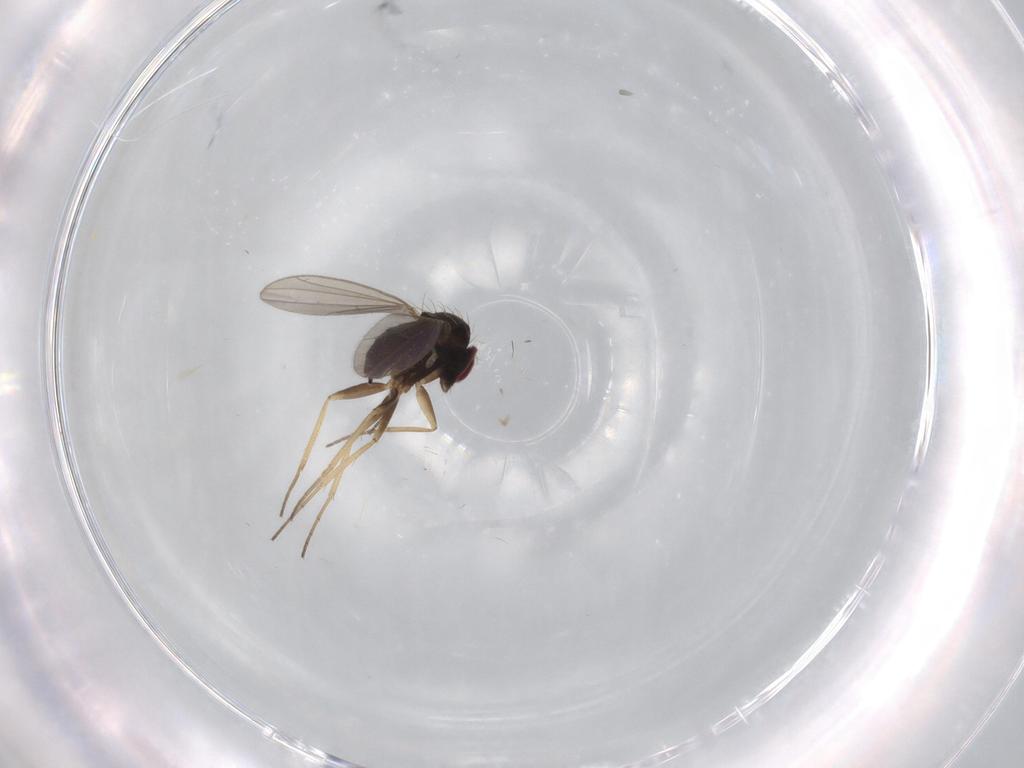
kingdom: Animalia
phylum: Arthropoda
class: Insecta
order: Diptera
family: Dolichopodidae
